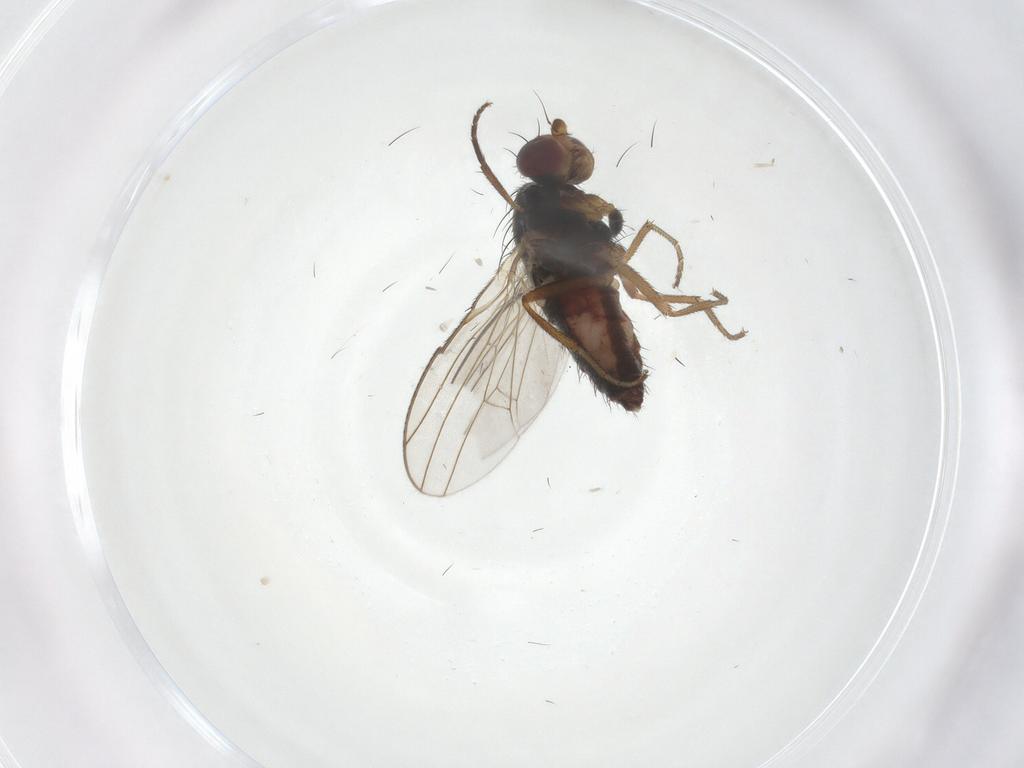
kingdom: Animalia
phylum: Arthropoda
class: Insecta
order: Diptera
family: Heleomyzidae
